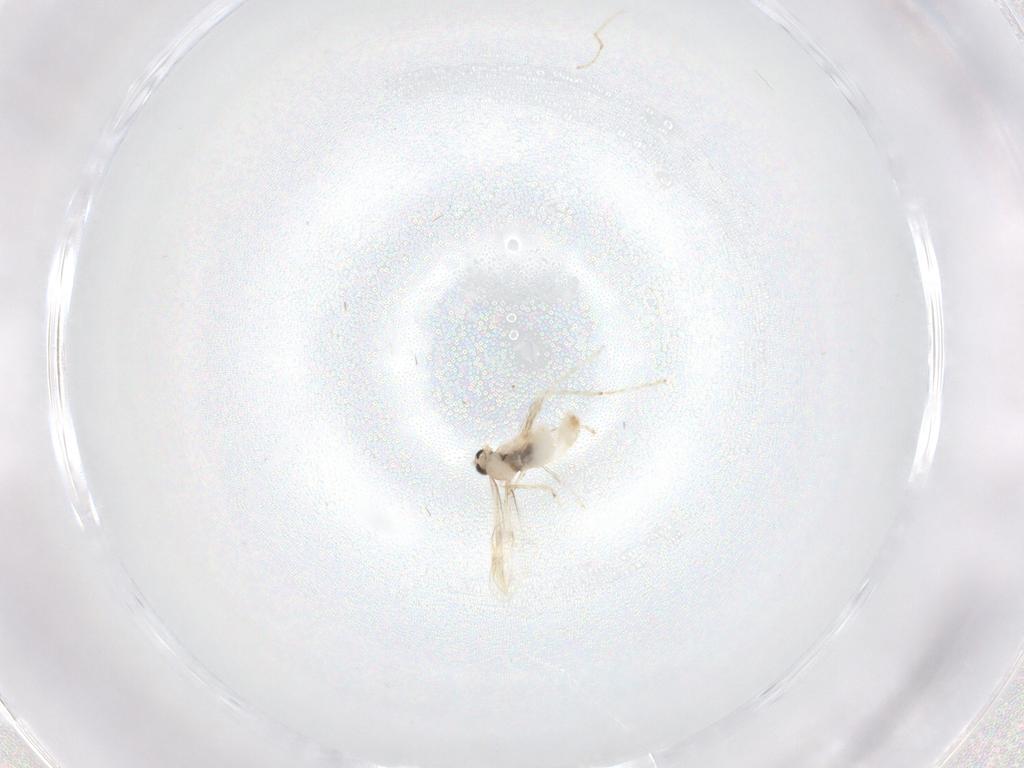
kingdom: Animalia
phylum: Arthropoda
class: Insecta
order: Diptera
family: Cecidomyiidae
